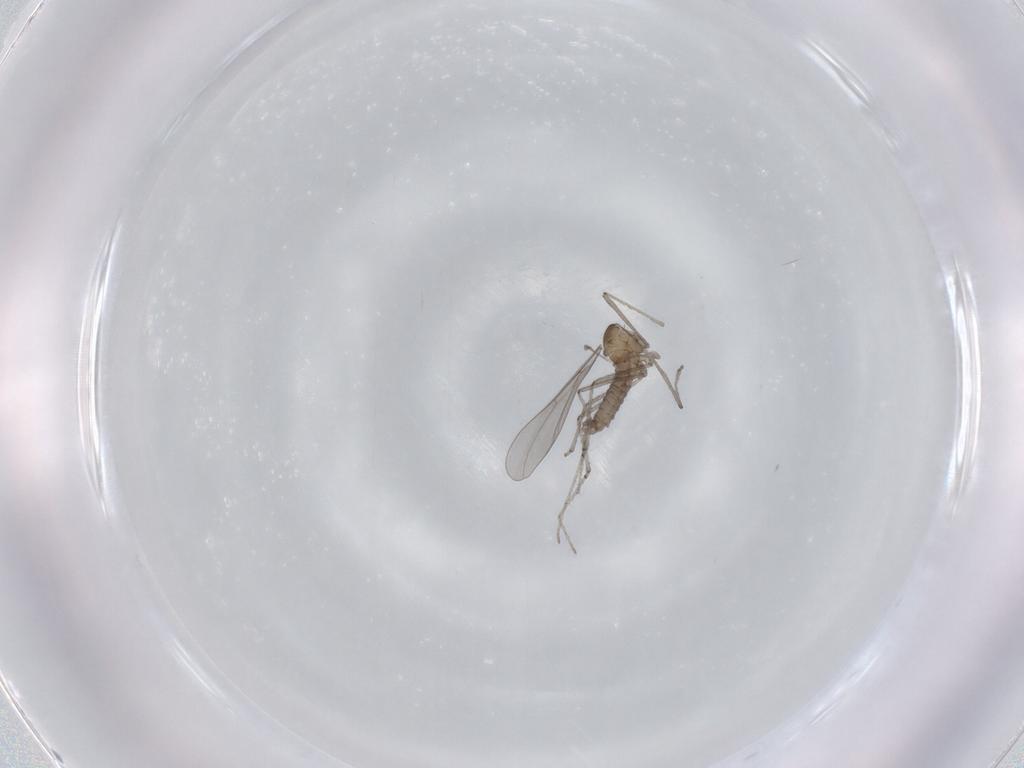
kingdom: Animalia
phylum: Arthropoda
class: Insecta
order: Diptera
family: Cecidomyiidae
